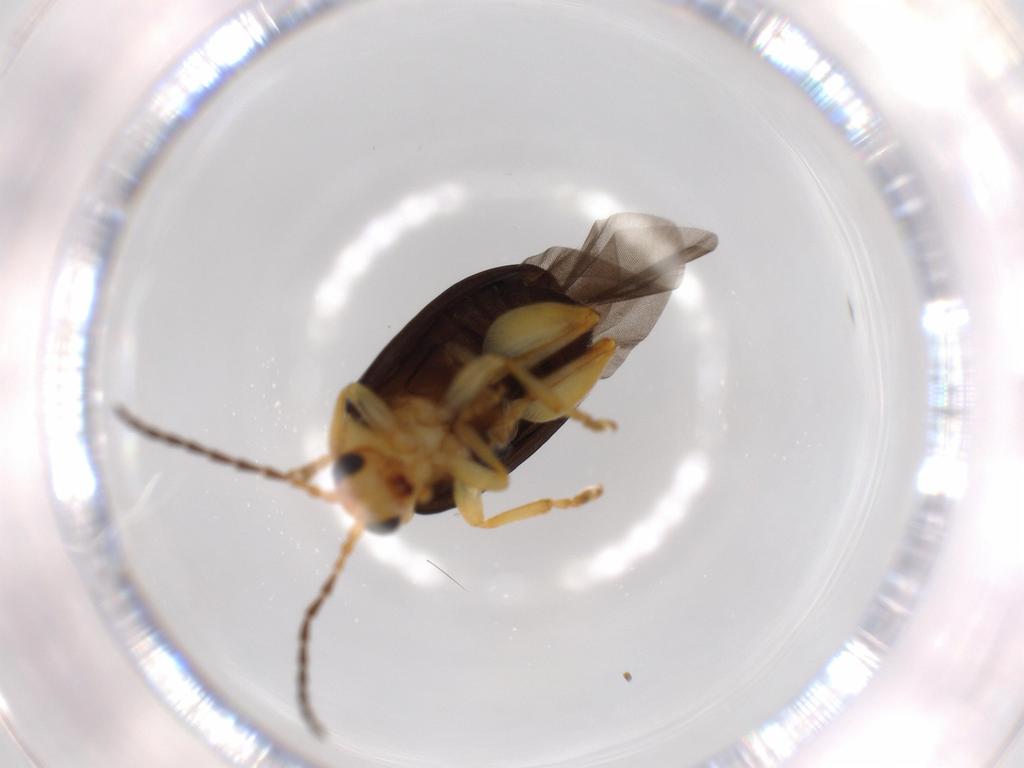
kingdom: Animalia
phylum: Arthropoda
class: Insecta
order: Coleoptera
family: Chrysomelidae
